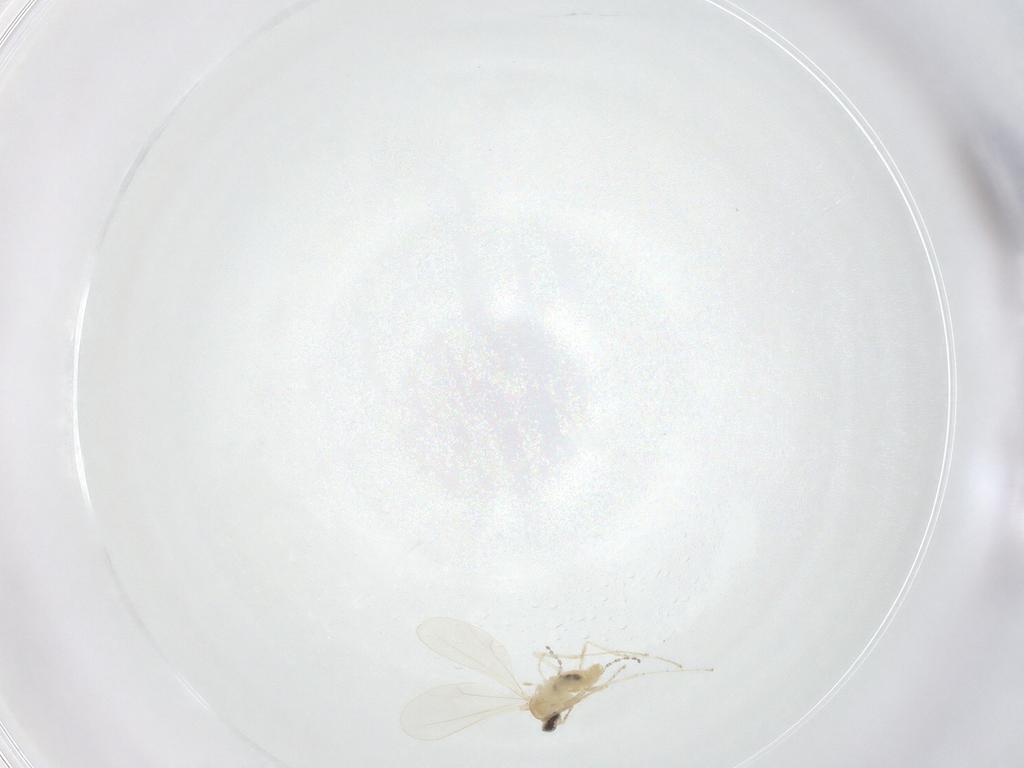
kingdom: Animalia
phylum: Arthropoda
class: Insecta
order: Diptera
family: Cecidomyiidae
